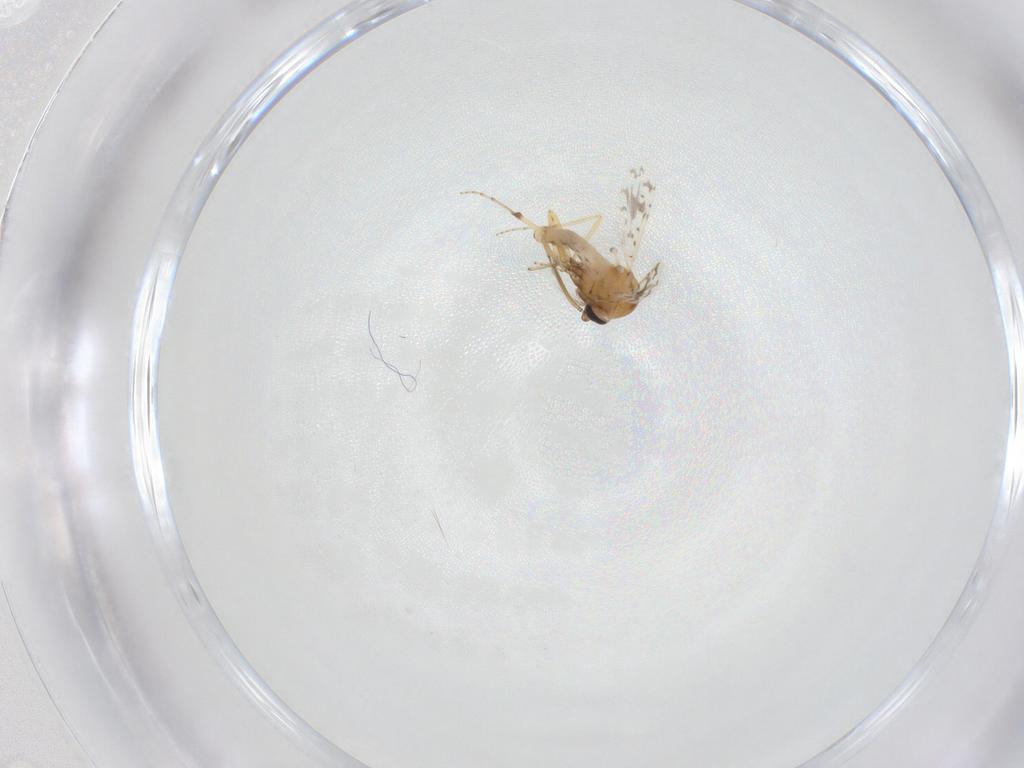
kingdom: Animalia
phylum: Arthropoda
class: Insecta
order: Diptera
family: Ceratopogonidae
